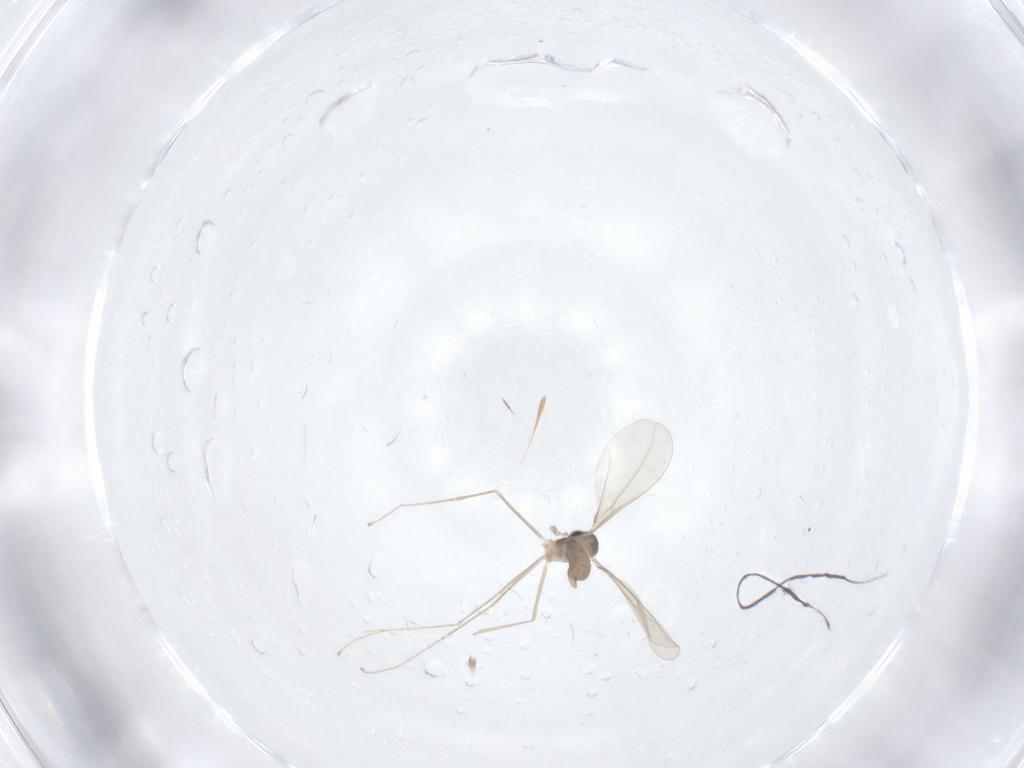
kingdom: Animalia
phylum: Arthropoda
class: Insecta
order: Diptera
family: Cecidomyiidae
